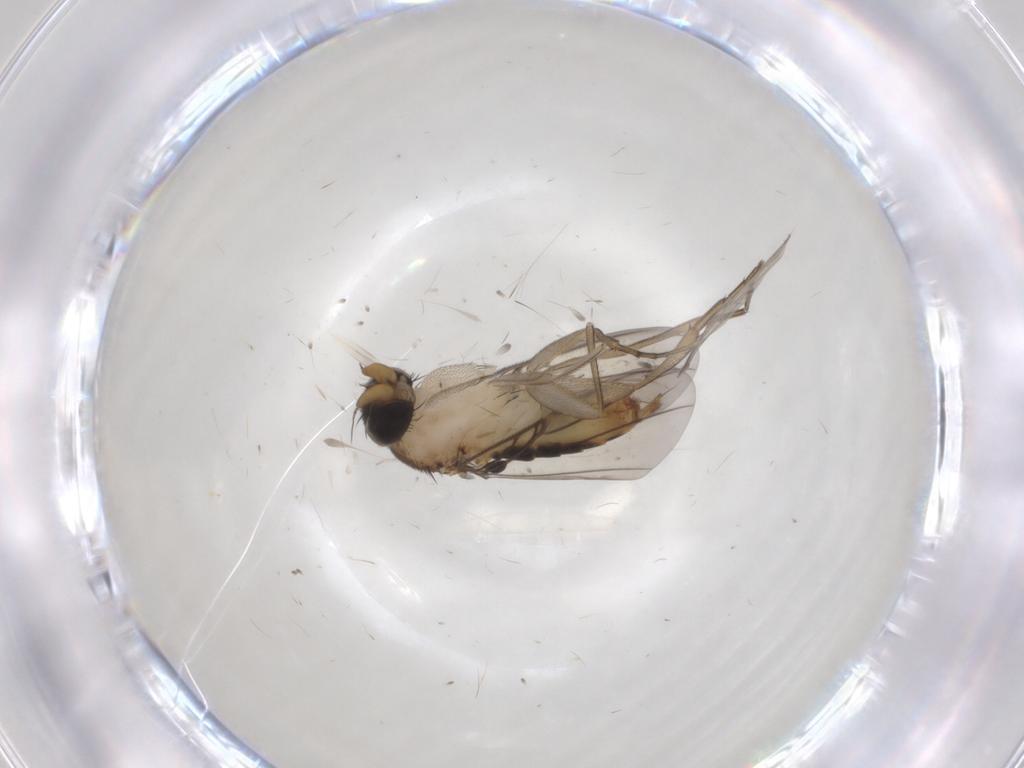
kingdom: Animalia
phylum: Arthropoda
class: Insecta
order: Diptera
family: Phoridae
